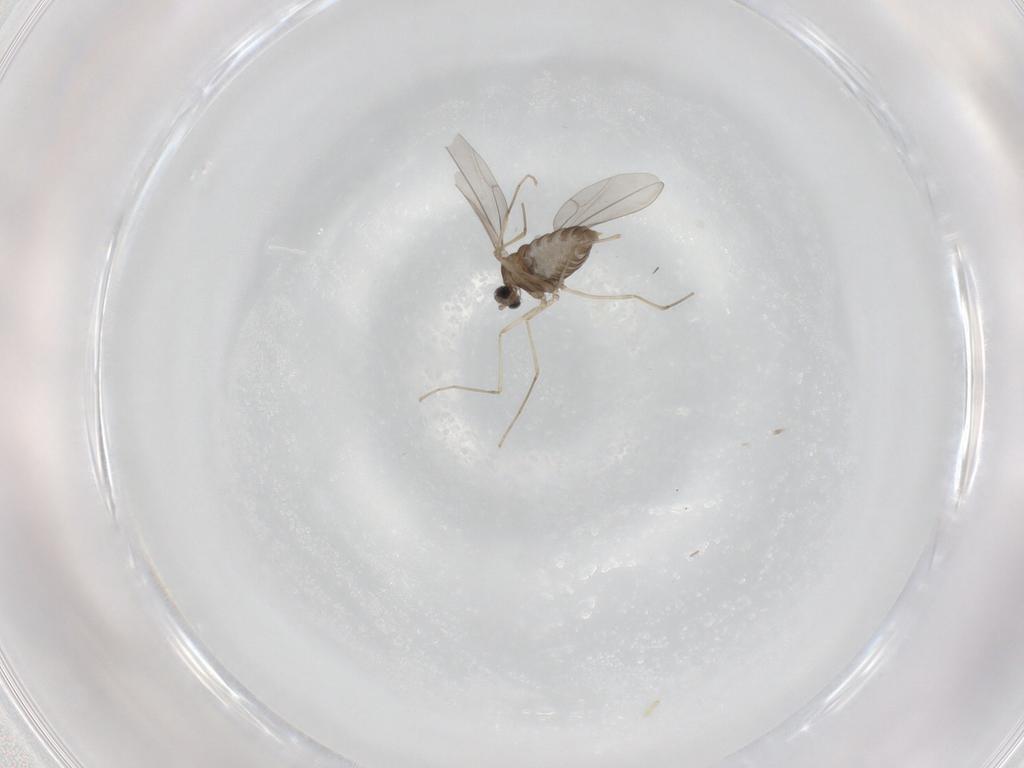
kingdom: Animalia
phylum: Arthropoda
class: Insecta
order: Diptera
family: Cecidomyiidae
